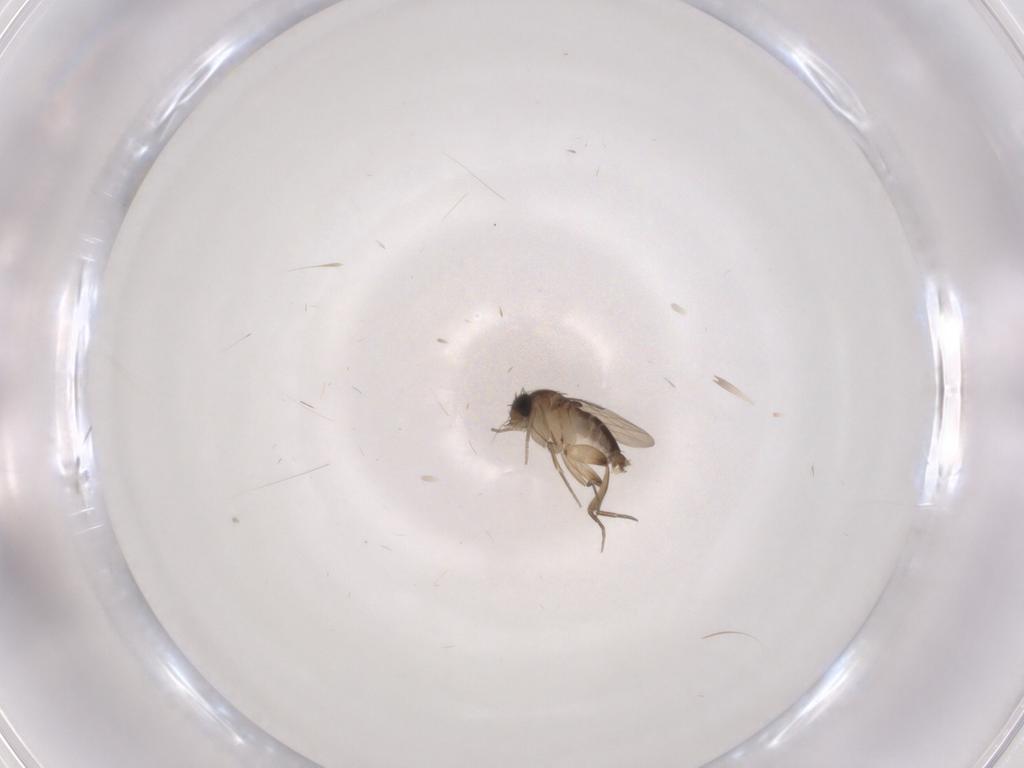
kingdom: Animalia
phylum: Arthropoda
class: Insecta
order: Diptera
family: Phoridae
